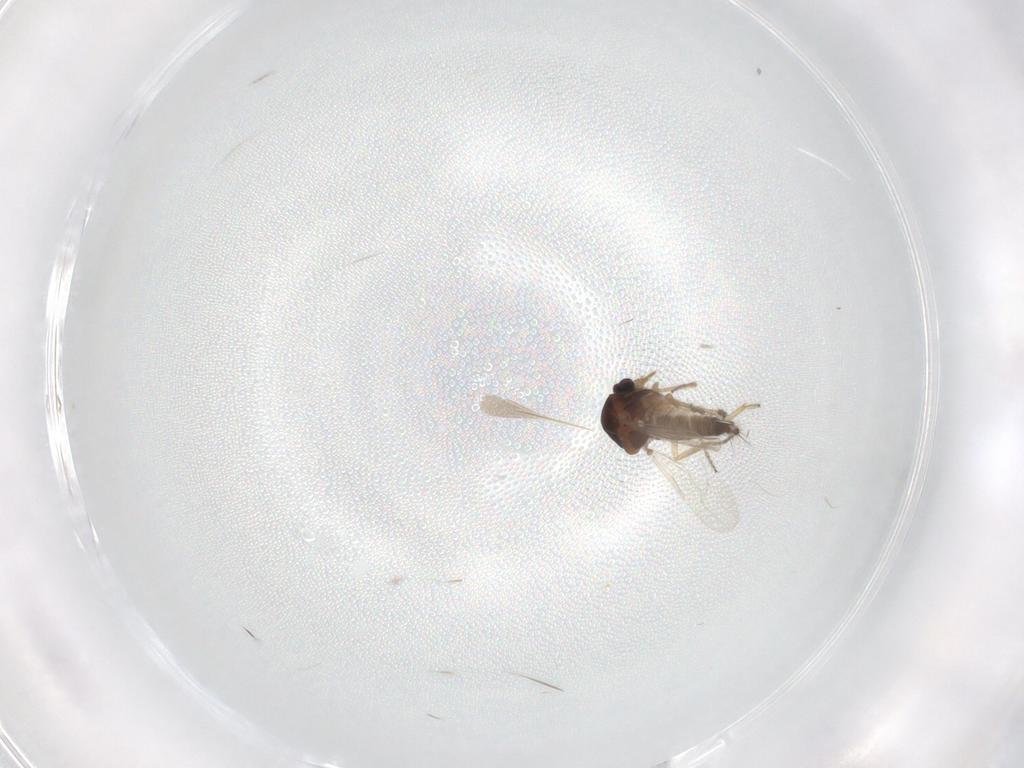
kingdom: Animalia
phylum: Arthropoda
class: Insecta
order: Diptera
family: Ceratopogonidae
